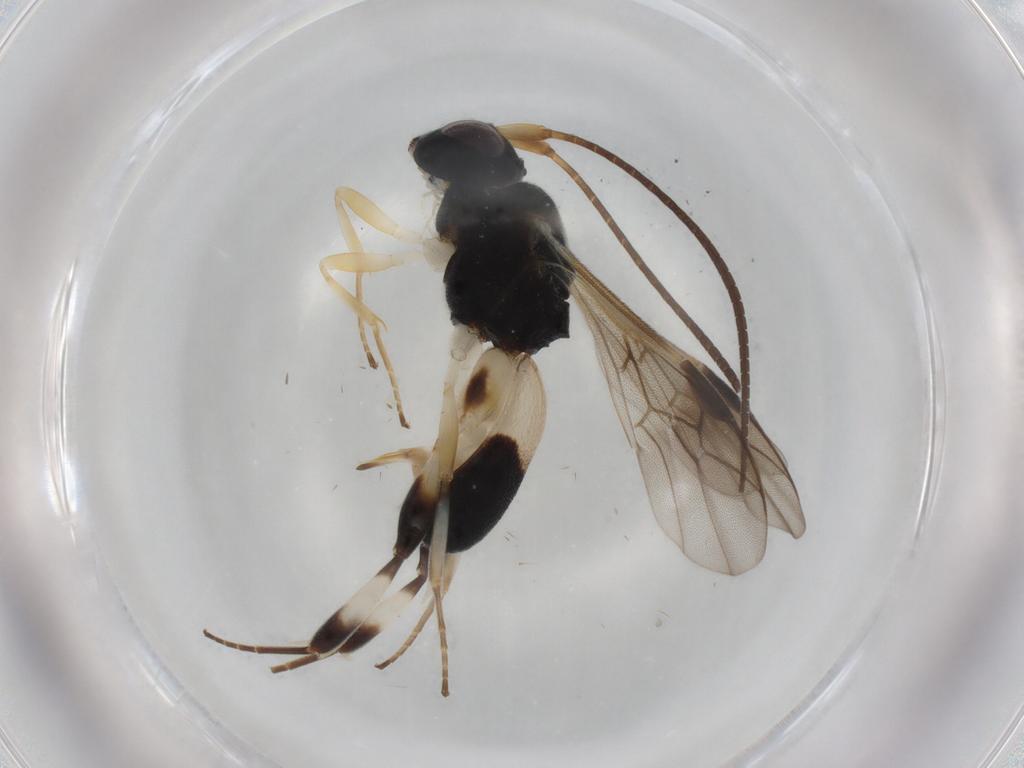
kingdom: Animalia
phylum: Arthropoda
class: Insecta
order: Hymenoptera
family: Braconidae
